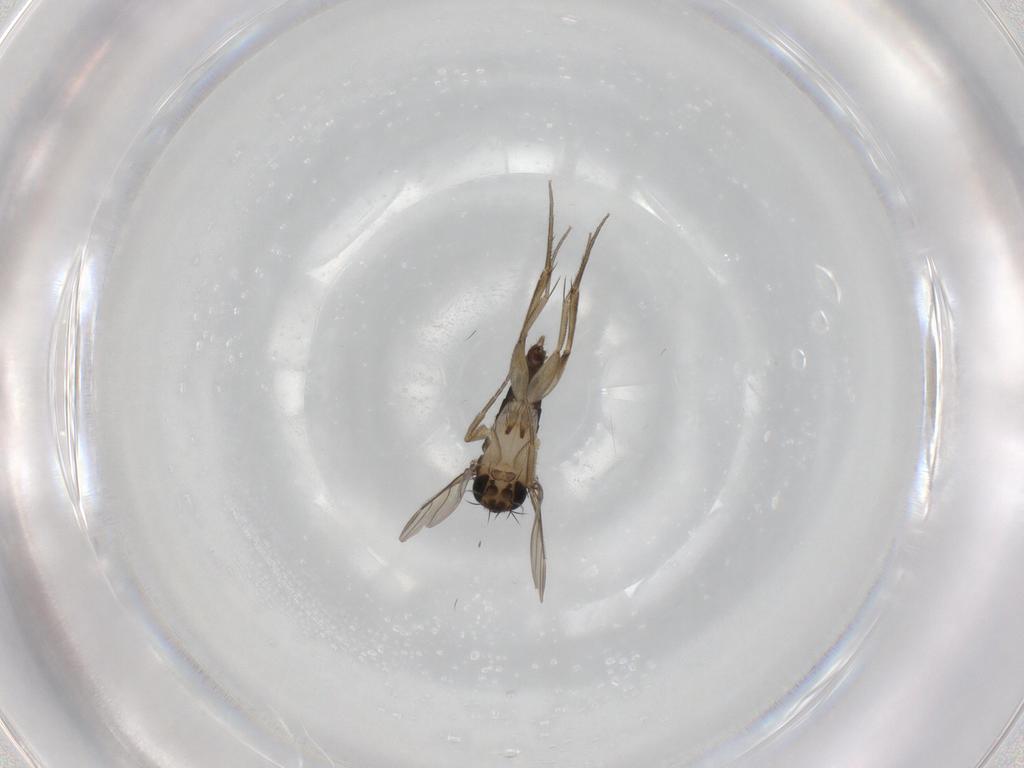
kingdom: Animalia
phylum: Arthropoda
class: Insecta
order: Diptera
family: Phoridae
